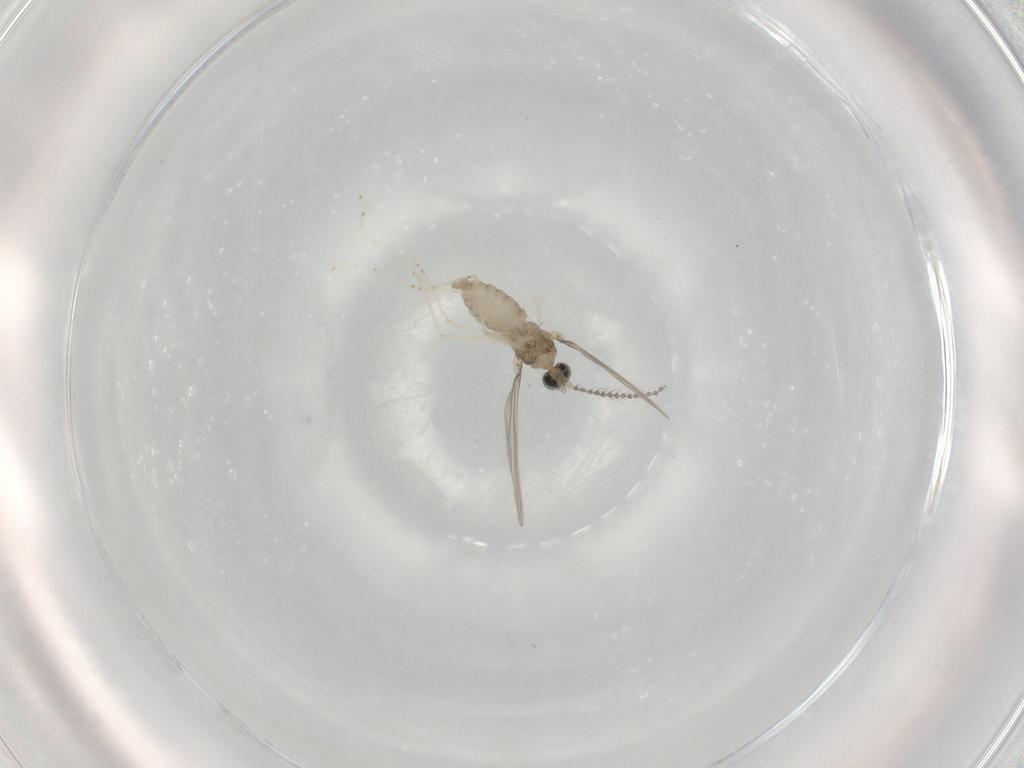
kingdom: Animalia
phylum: Arthropoda
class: Insecta
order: Diptera
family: Cecidomyiidae
